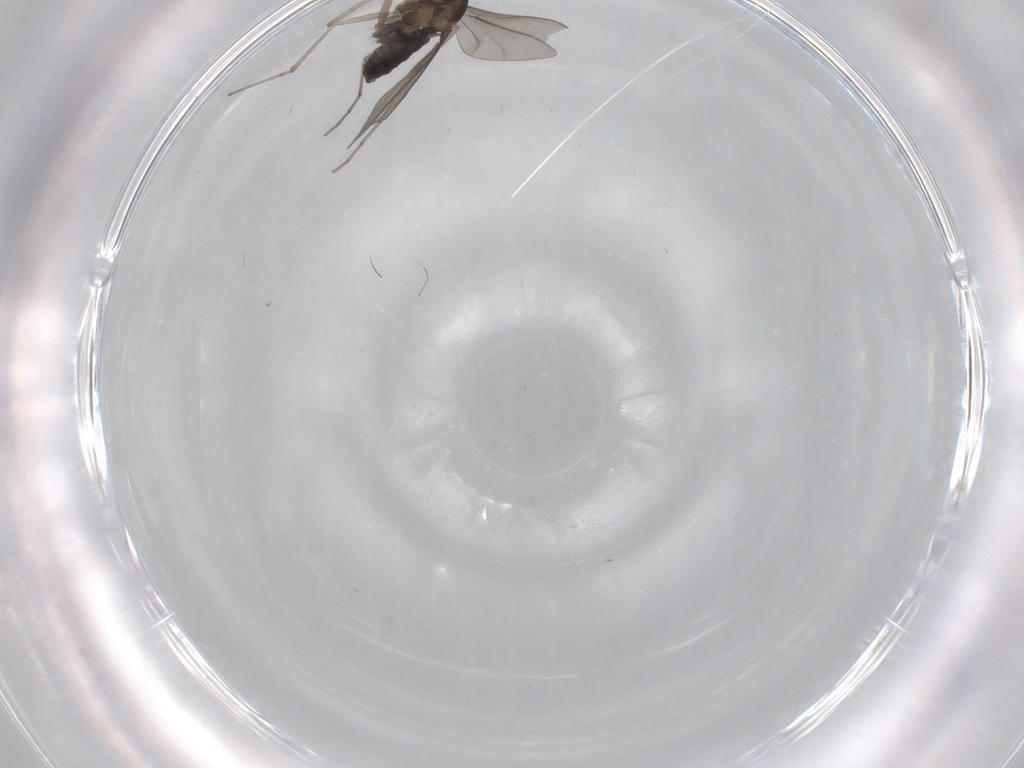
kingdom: Animalia
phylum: Arthropoda
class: Insecta
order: Diptera
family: Cecidomyiidae
